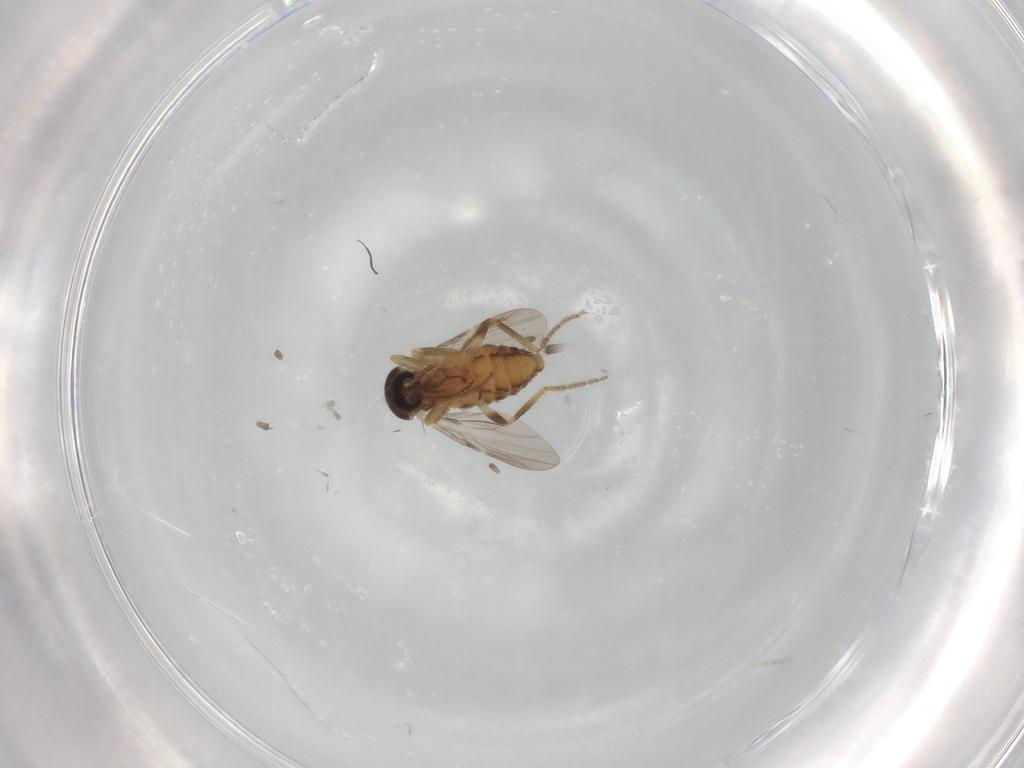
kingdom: Animalia
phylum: Arthropoda
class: Insecta
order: Diptera
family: Ceratopogonidae
